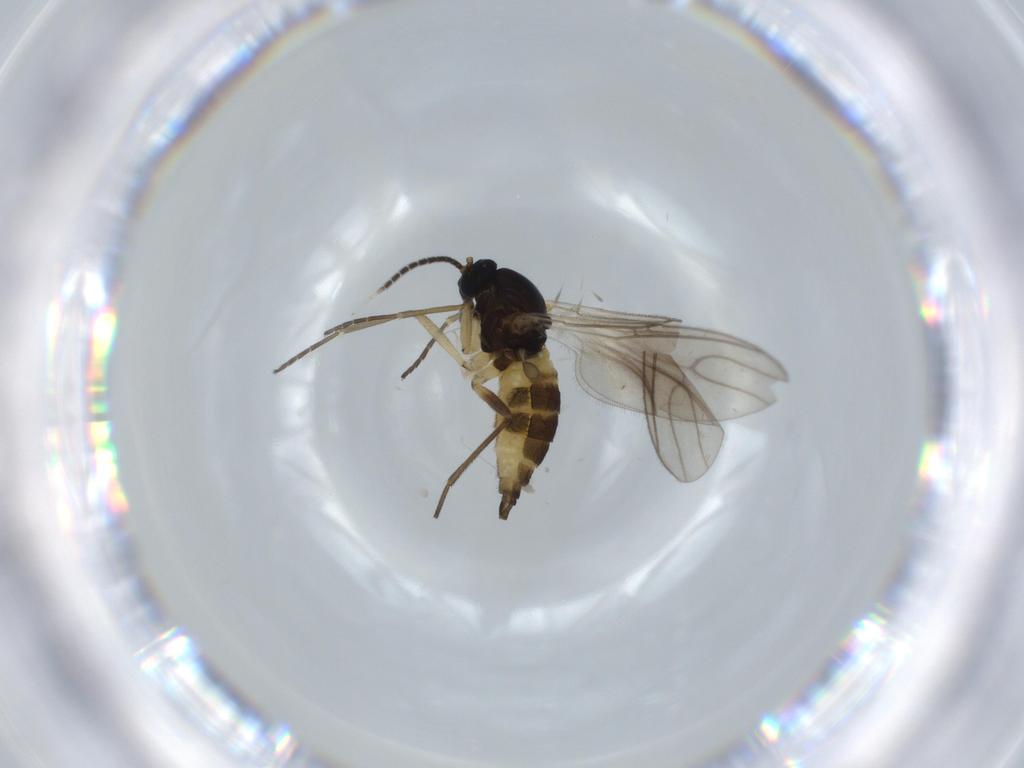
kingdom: Animalia
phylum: Arthropoda
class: Insecta
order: Diptera
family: Sciaridae
